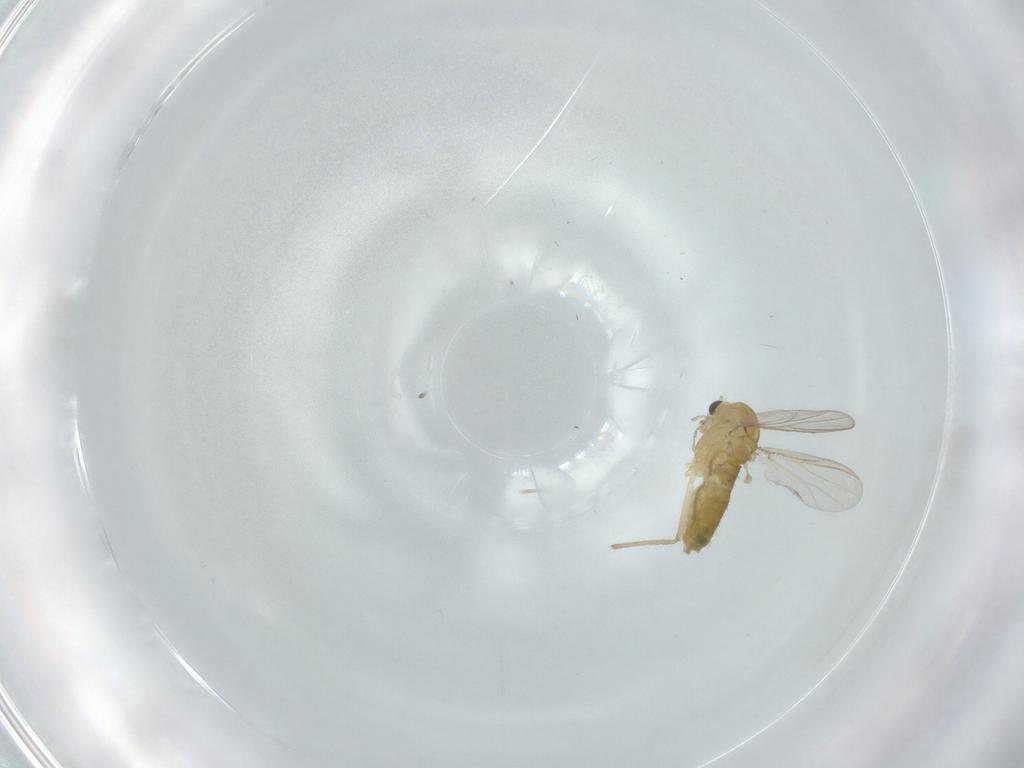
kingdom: Animalia
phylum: Arthropoda
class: Insecta
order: Diptera
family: Chironomidae
